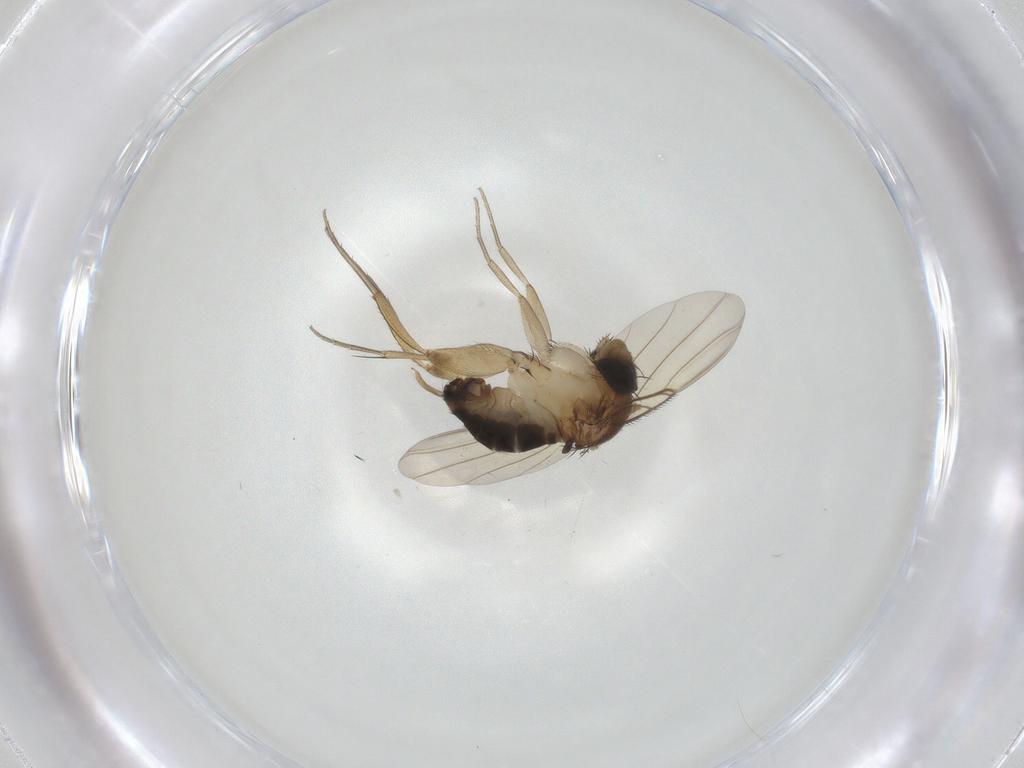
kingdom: Animalia
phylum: Arthropoda
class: Insecta
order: Diptera
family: Phoridae
